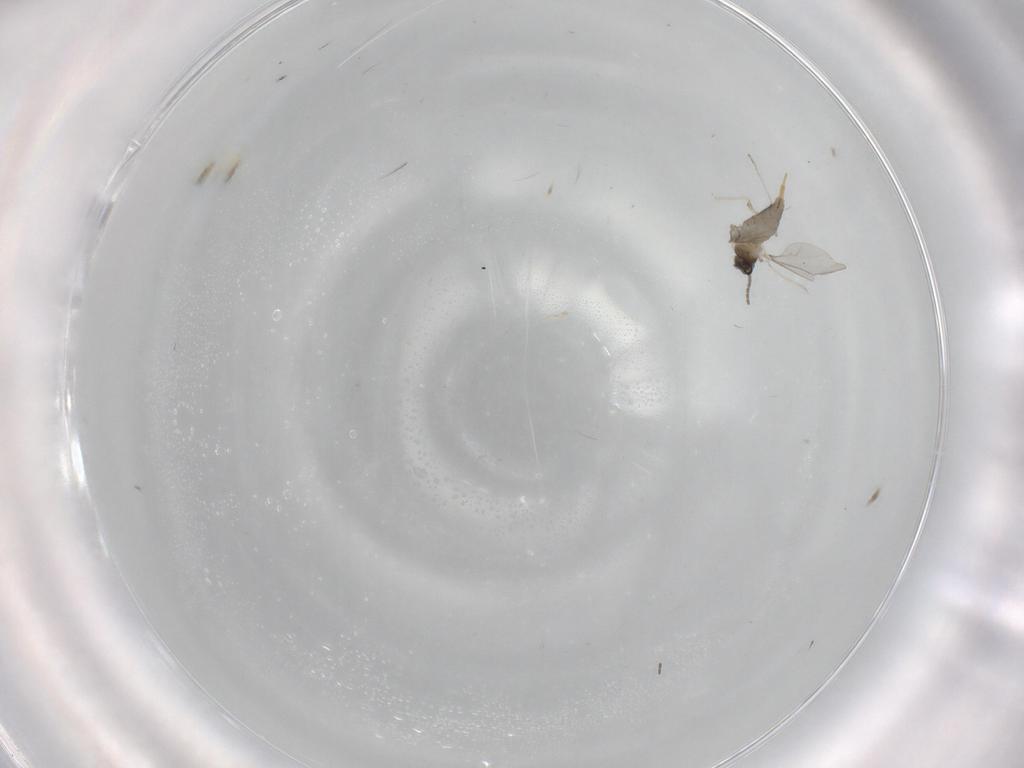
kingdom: Animalia
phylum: Arthropoda
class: Insecta
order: Diptera
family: Cecidomyiidae
